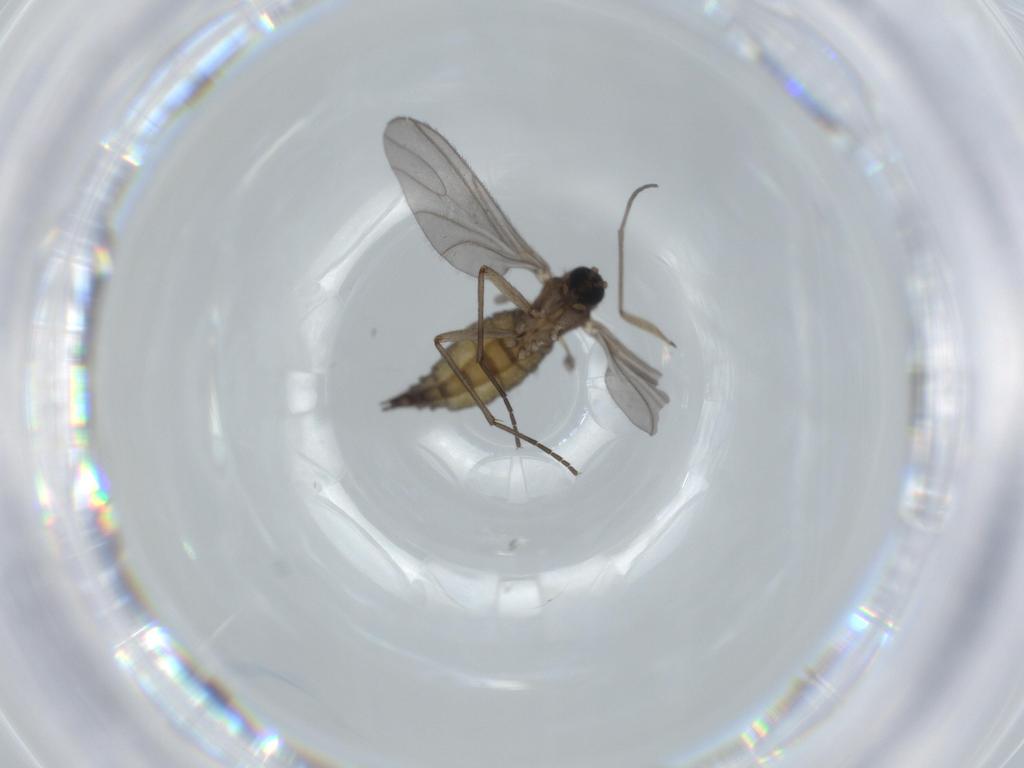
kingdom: Animalia
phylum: Arthropoda
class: Insecta
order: Diptera
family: Sciaridae
